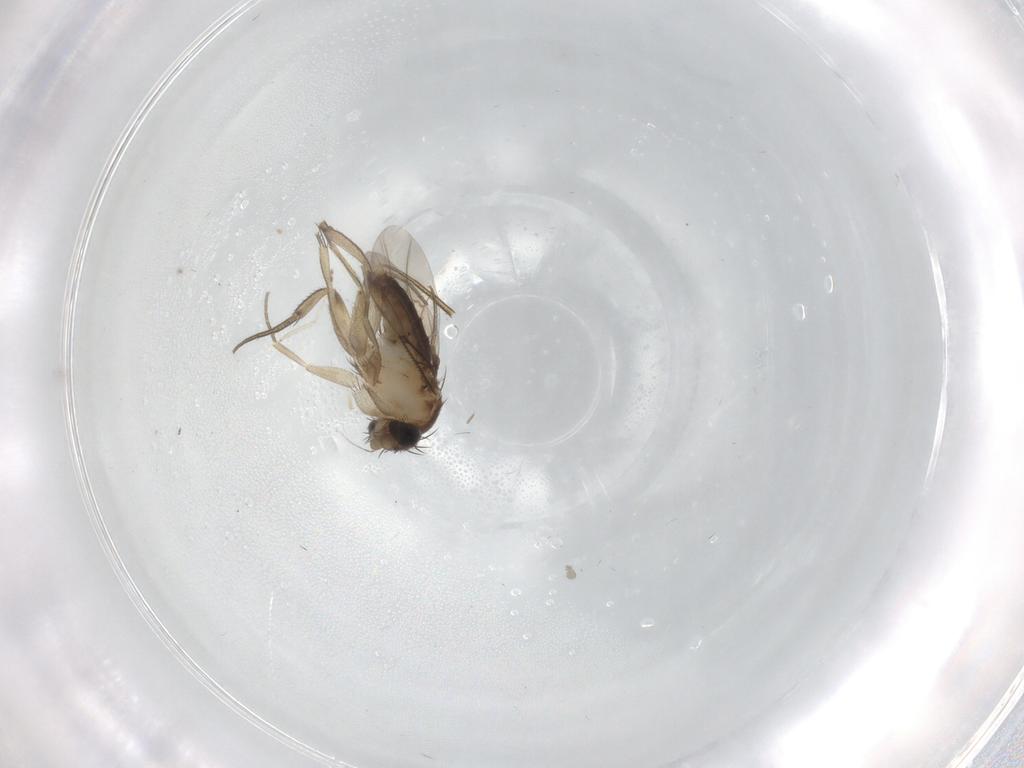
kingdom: Animalia
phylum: Arthropoda
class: Insecta
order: Diptera
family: Phoridae
